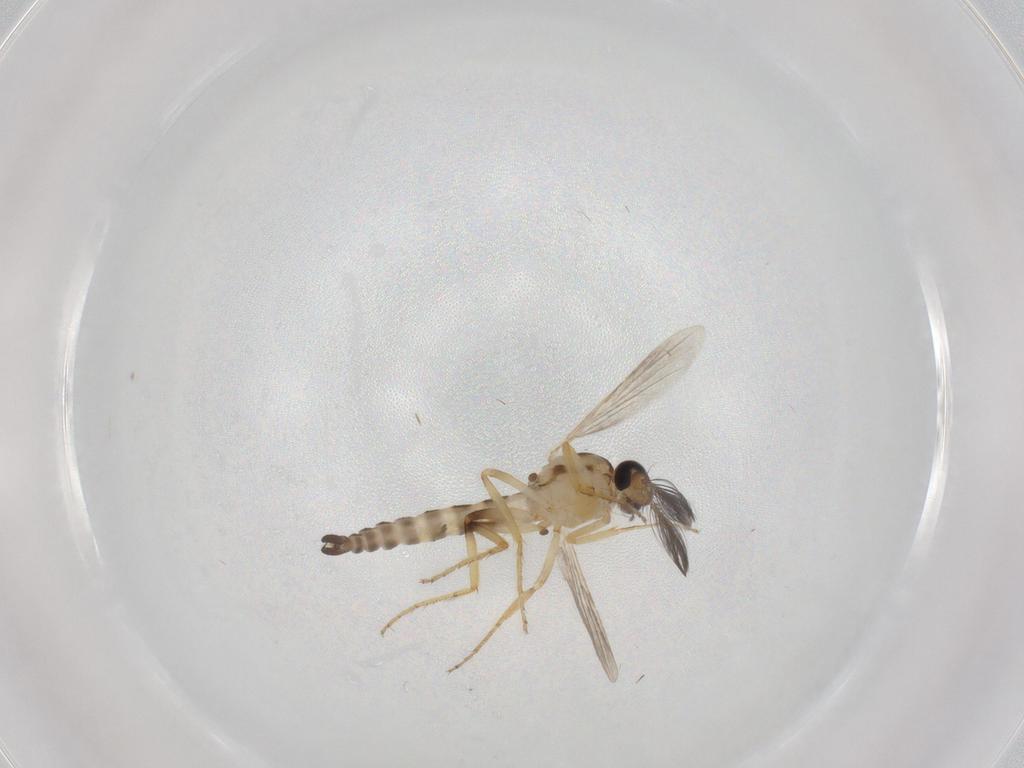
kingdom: Animalia
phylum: Arthropoda
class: Insecta
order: Diptera
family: Ceratopogonidae
